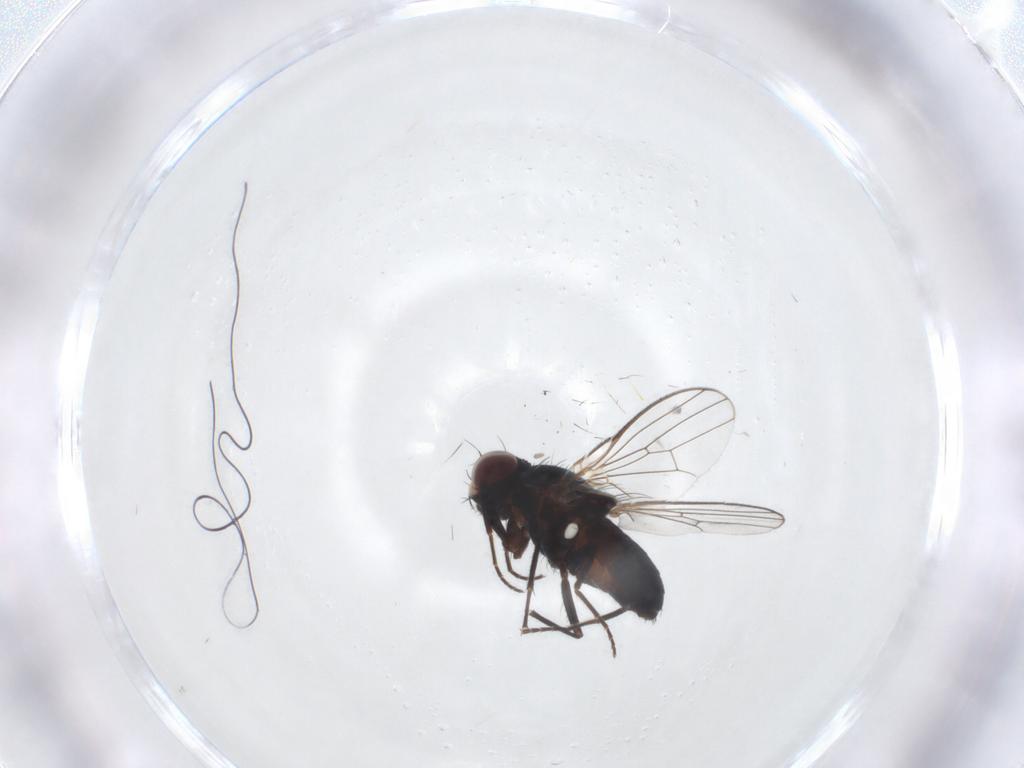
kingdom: Animalia
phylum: Arthropoda
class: Insecta
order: Diptera
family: Carnidae
